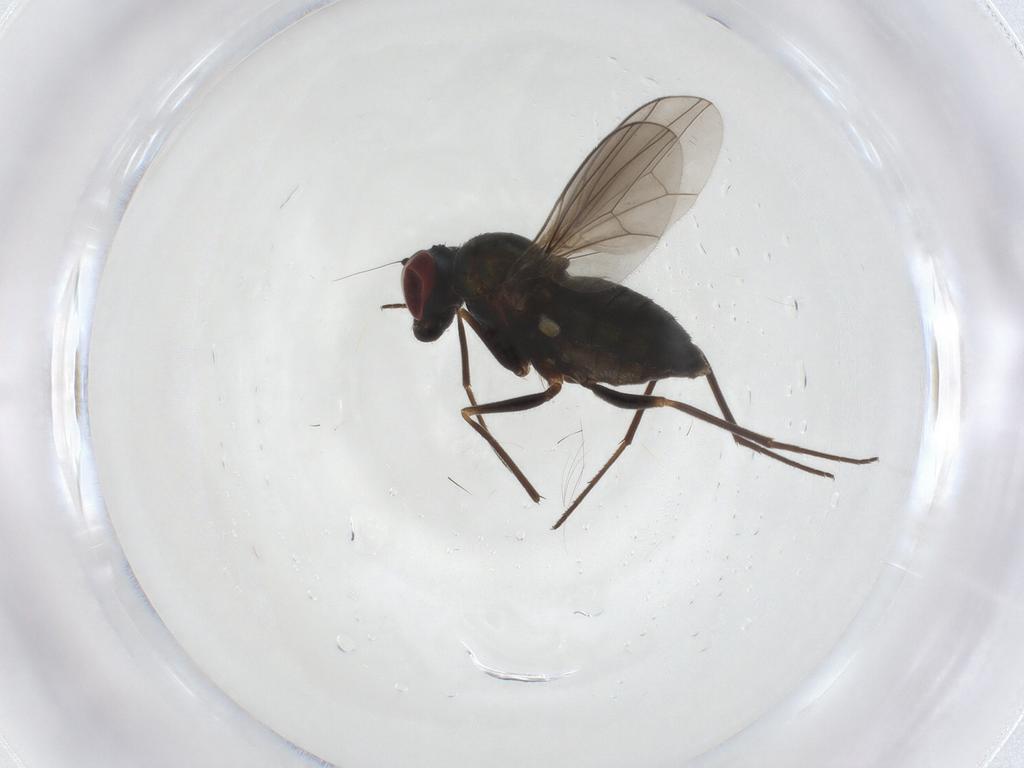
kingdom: Animalia
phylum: Arthropoda
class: Insecta
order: Diptera
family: Sciaridae
